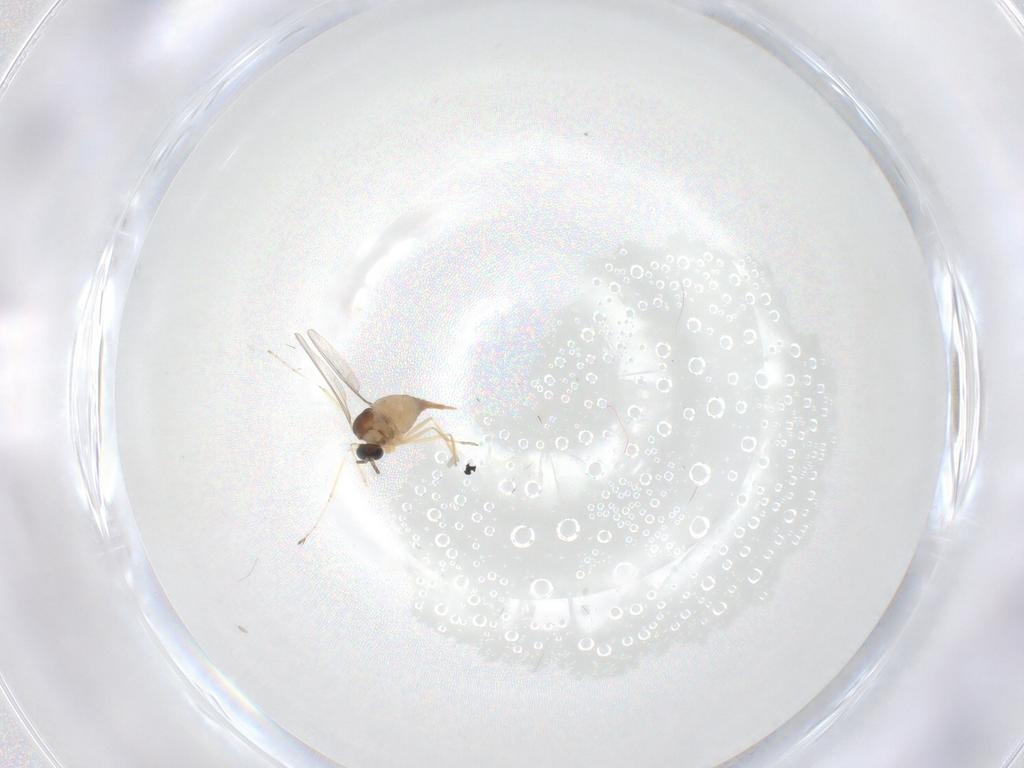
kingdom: Animalia
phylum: Arthropoda
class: Insecta
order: Diptera
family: Cecidomyiidae
